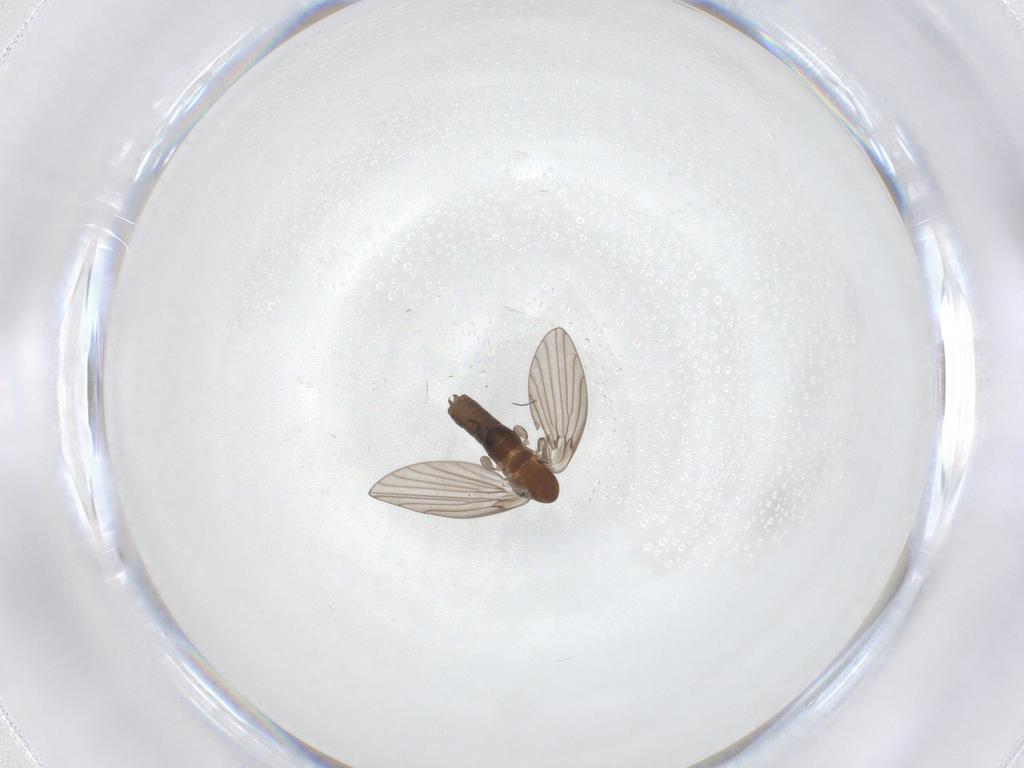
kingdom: Animalia
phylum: Arthropoda
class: Insecta
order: Diptera
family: Psychodidae
